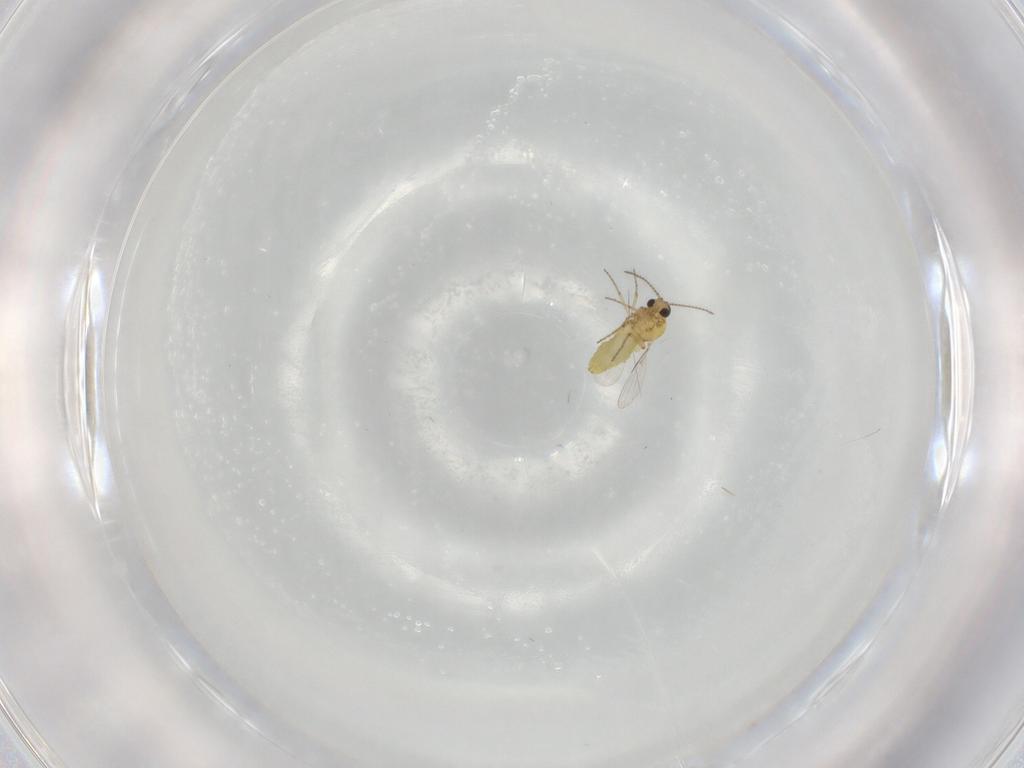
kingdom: Animalia
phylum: Arthropoda
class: Insecta
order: Diptera
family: Ceratopogonidae
